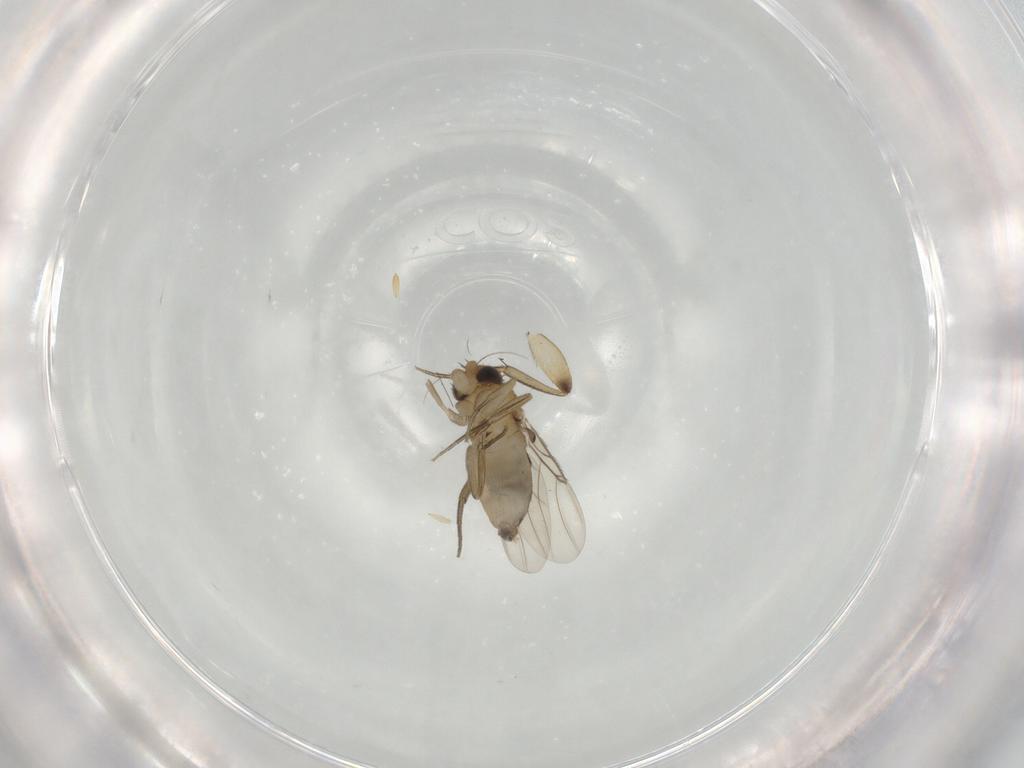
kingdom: Animalia
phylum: Arthropoda
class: Insecta
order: Diptera
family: Phoridae
